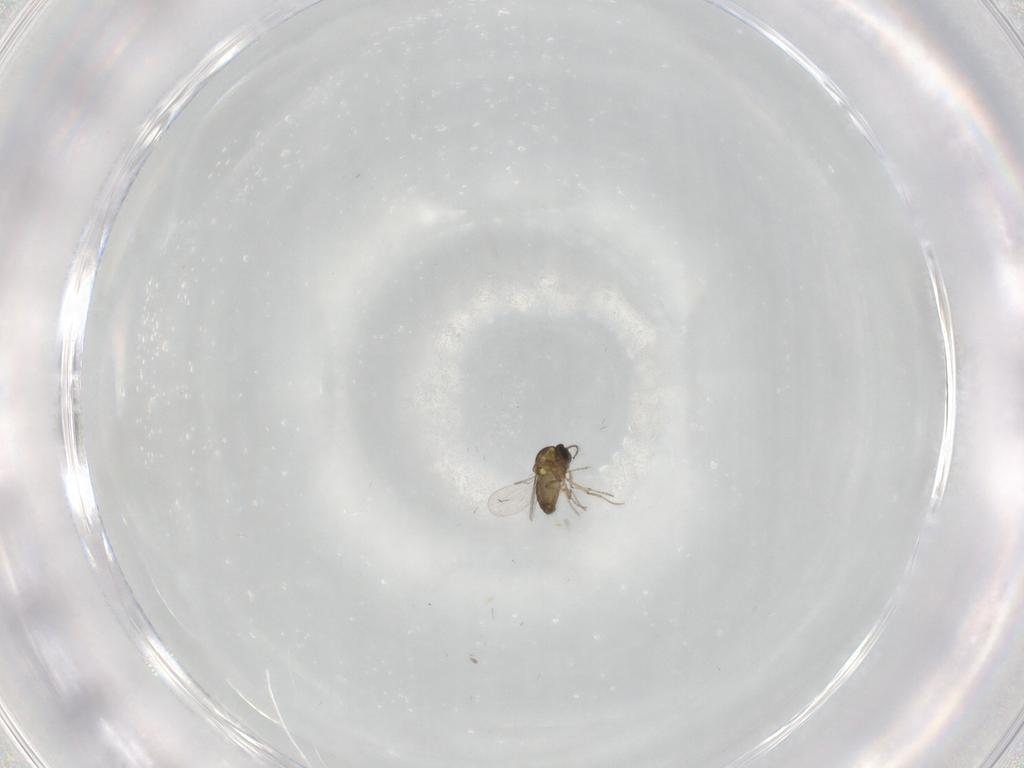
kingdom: Animalia
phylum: Arthropoda
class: Insecta
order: Diptera
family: Ceratopogonidae
